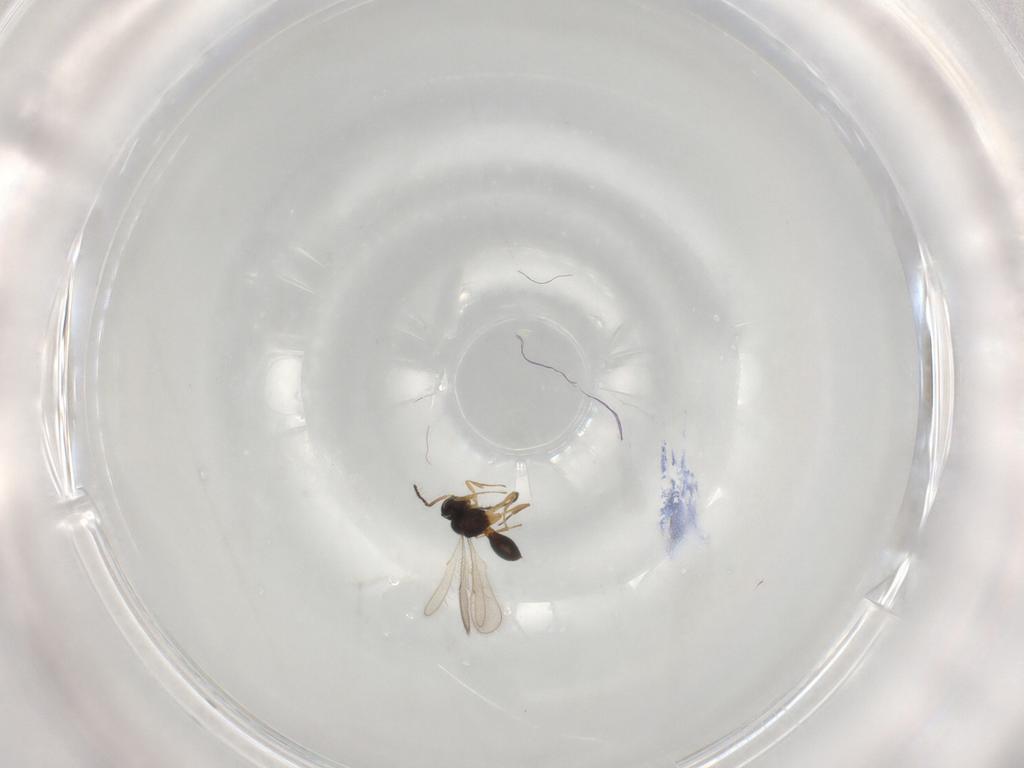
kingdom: Animalia
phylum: Arthropoda
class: Insecta
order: Hymenoptera
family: Scelionidae
